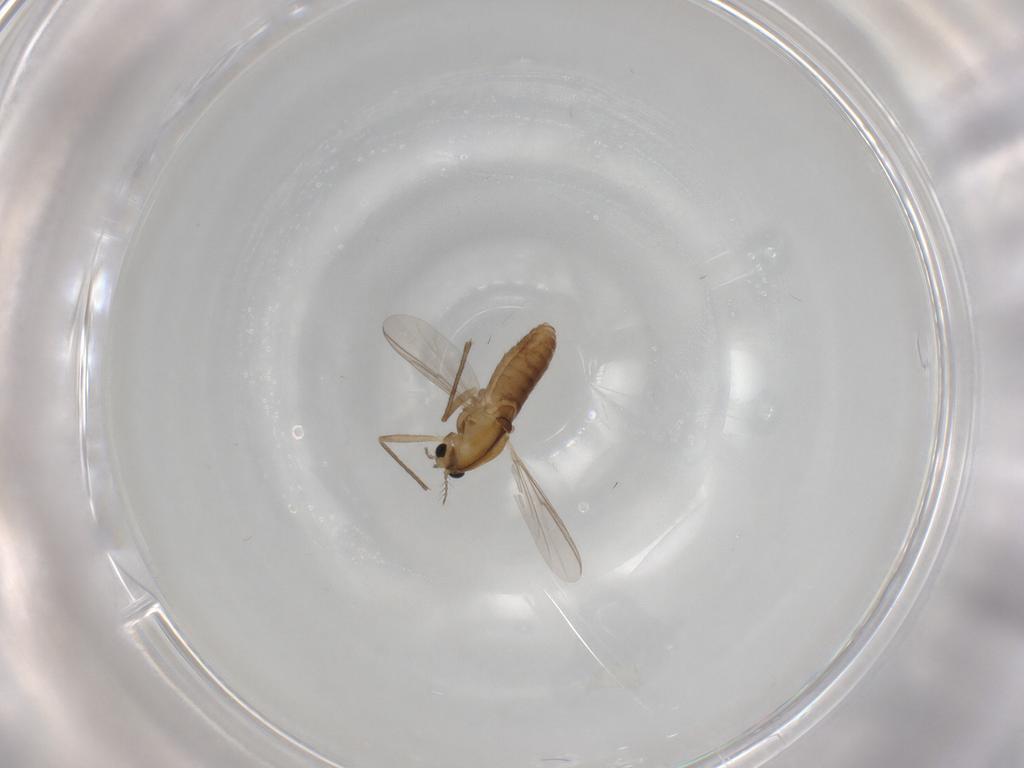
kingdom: Animalia
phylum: Arthropoda
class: Insecta
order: Diptera
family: Chironomidae
